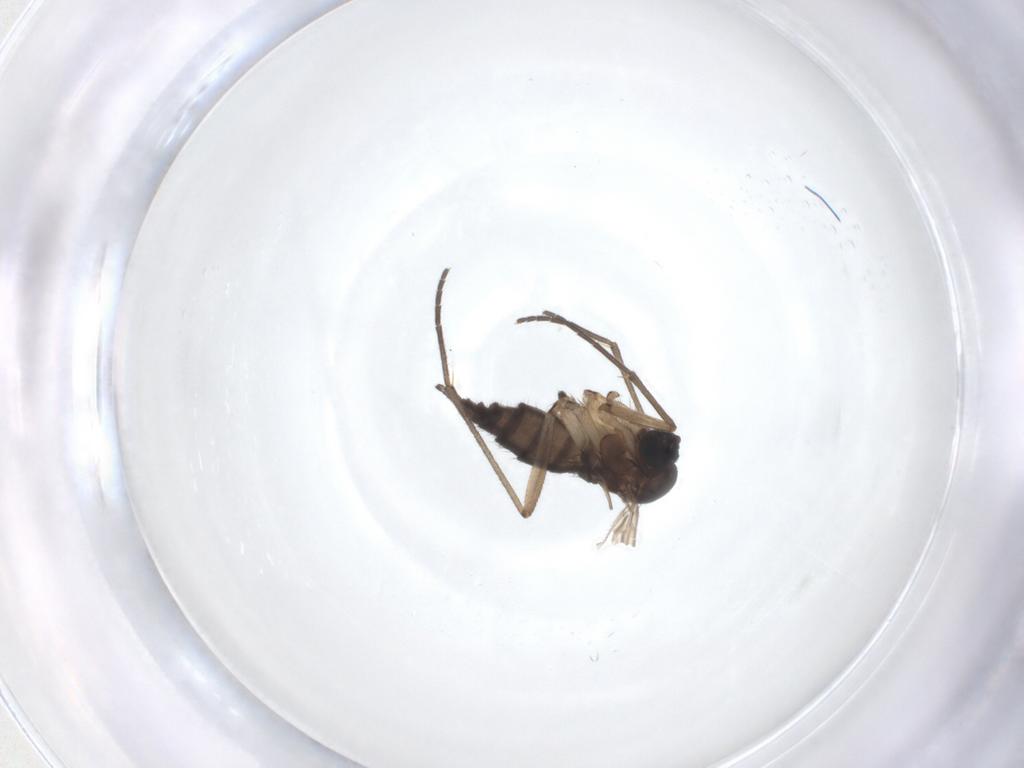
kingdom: Animalia
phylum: Arthropoda
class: Insecta
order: Diptera
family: Sciaridae
